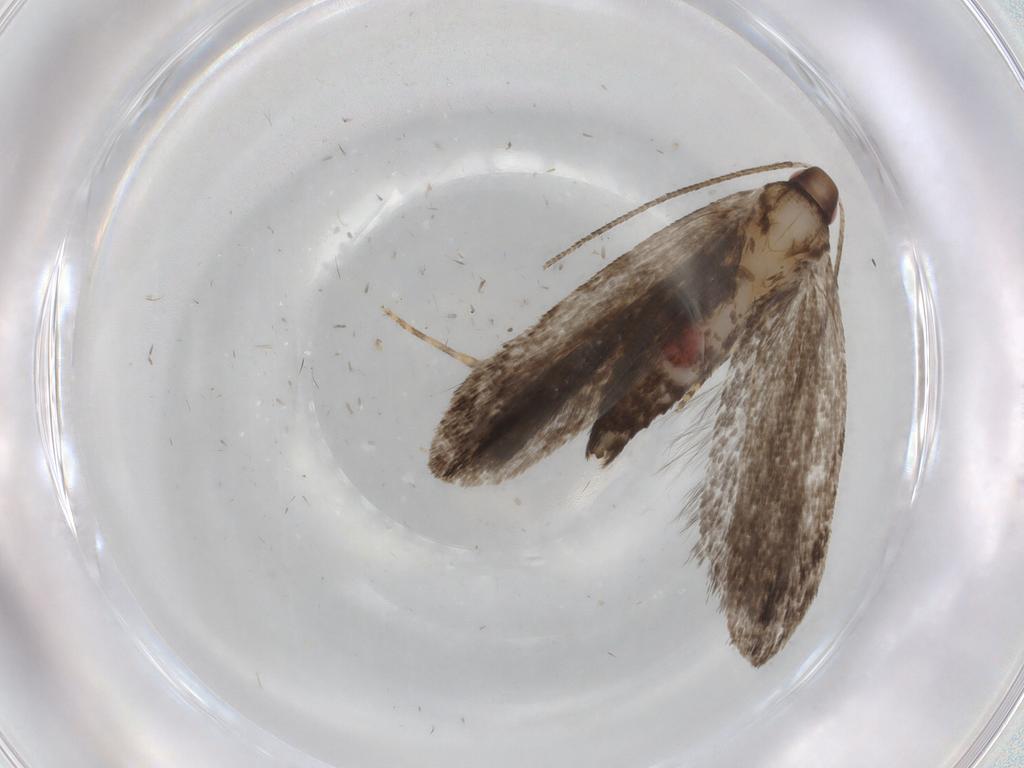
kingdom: Animalia
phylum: Arthropoda
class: Insecta
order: Lepidoptera
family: Gelechiidae
